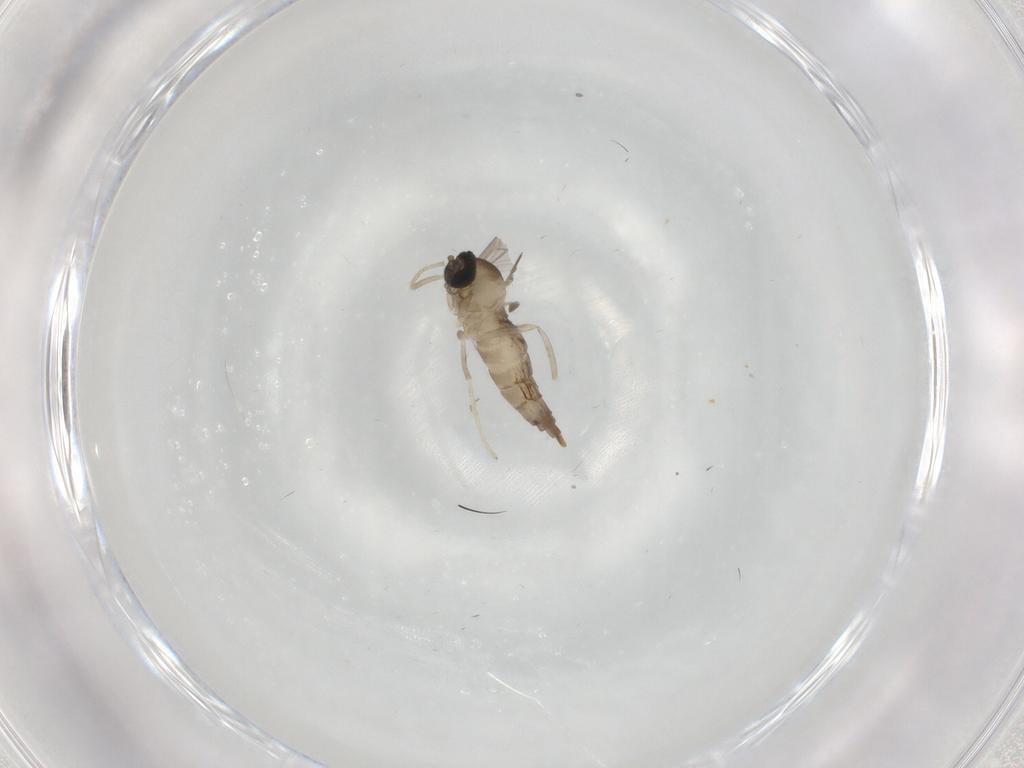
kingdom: Animalia
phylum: Arthropoda
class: Insecta
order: Diptera
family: Cecidomyiidae
